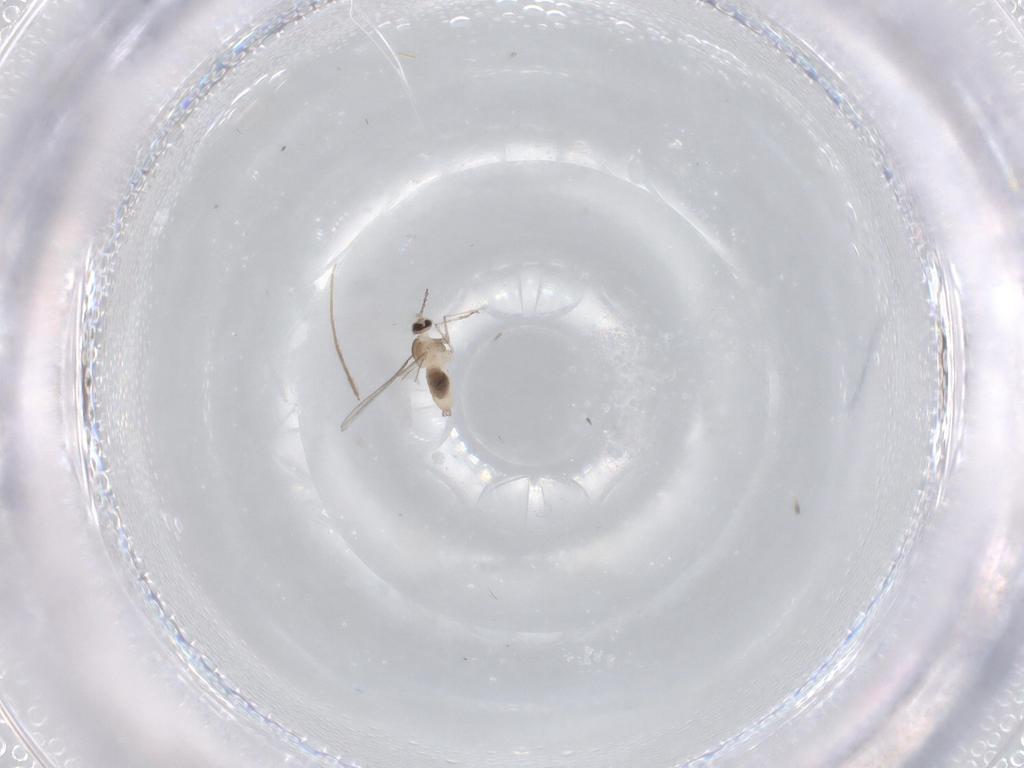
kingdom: Animalia
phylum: Arthropoda
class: Insecta
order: Diptera
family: Cecidomyiidae
